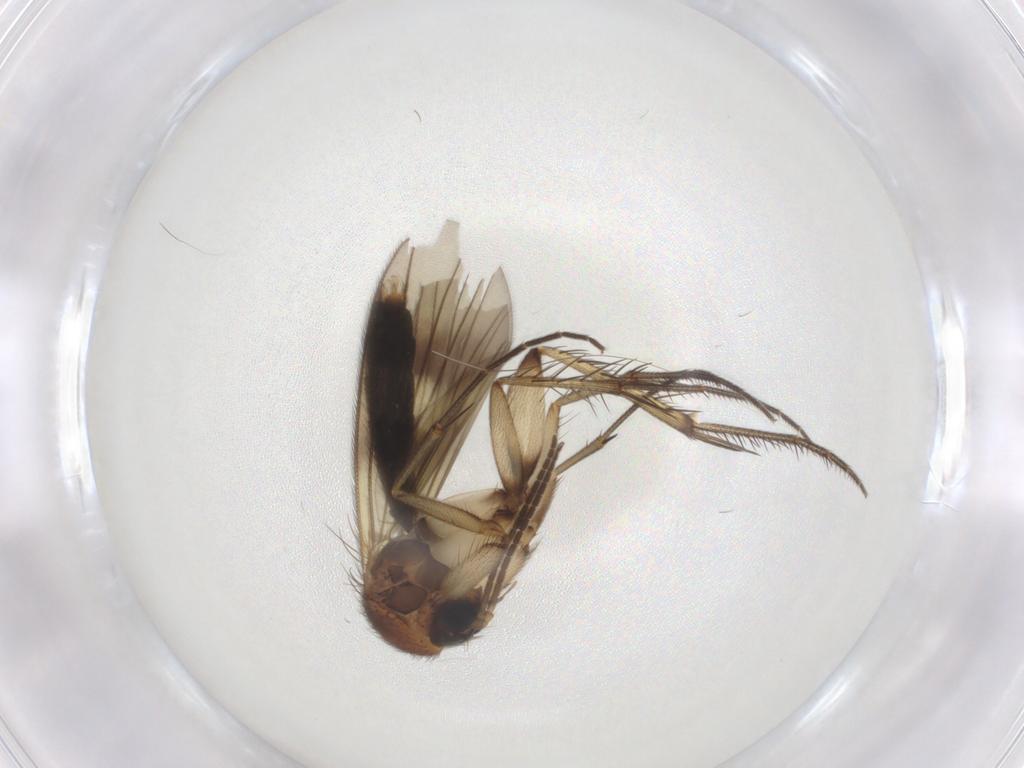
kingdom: Animalia
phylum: Arthropoda
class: Insecta
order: Diptera
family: Mycetophilidae
